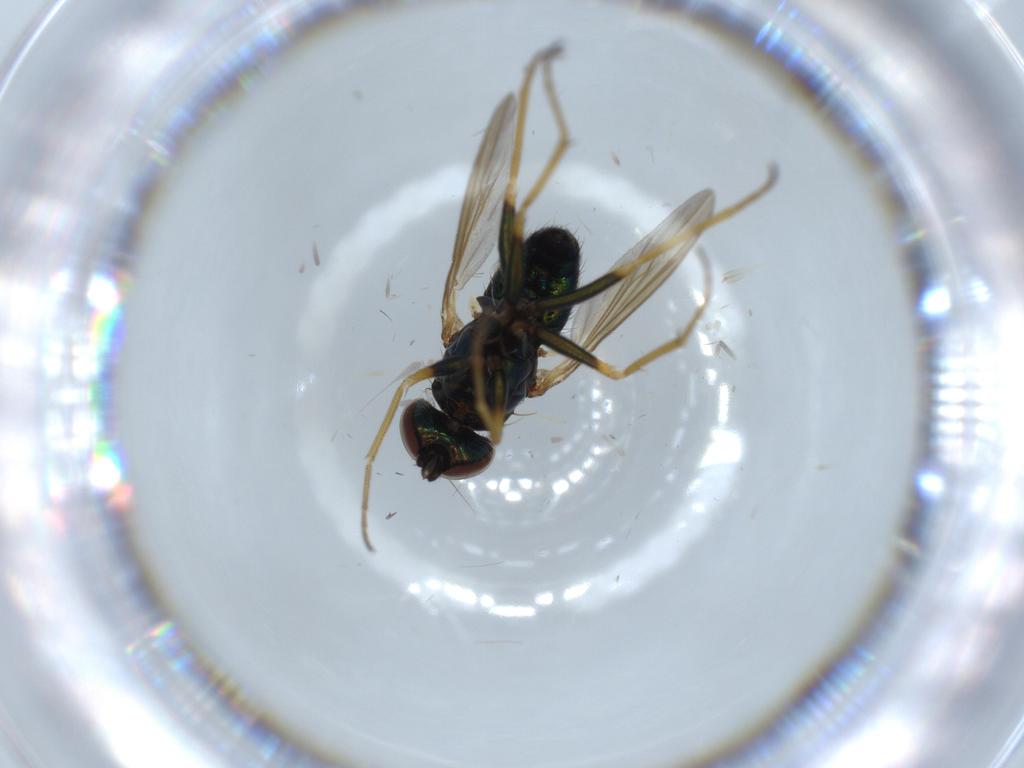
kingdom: Animalia
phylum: Arthropoda
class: Insecta
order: Diptera
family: Dolichopodidae
